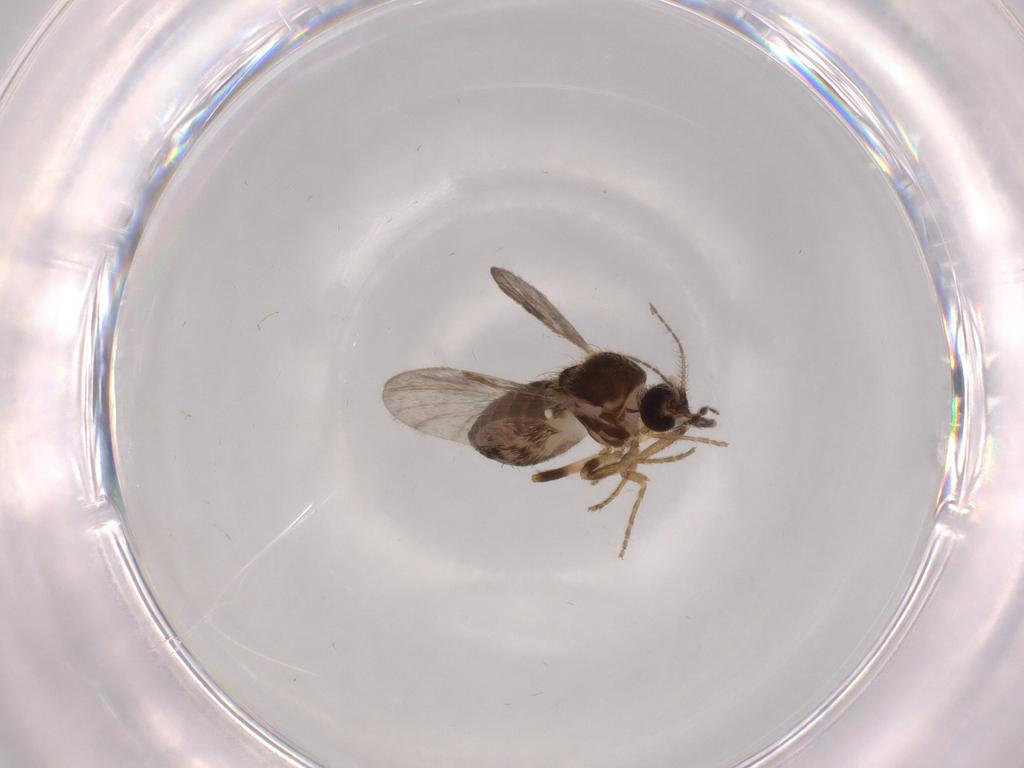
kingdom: Animalia
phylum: Arthropoda
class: Insecta
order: Diptera
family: Ceratopogonidae
